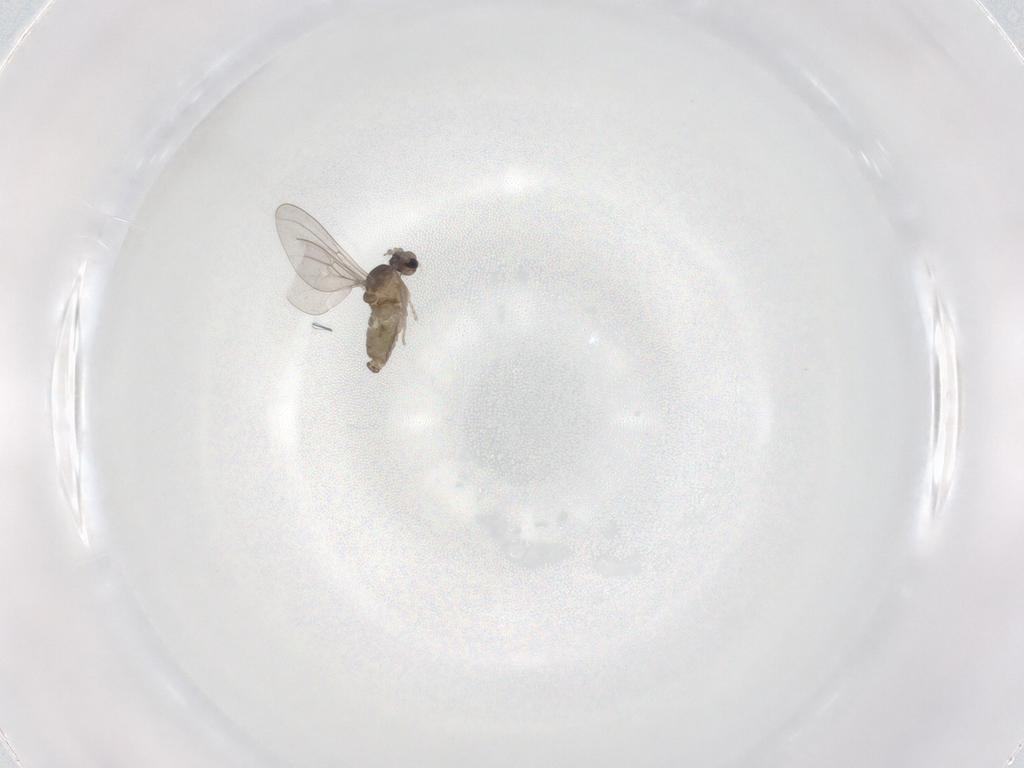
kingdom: Animalia
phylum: Arthropoda
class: Insecta
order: Diptera
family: Cecidomyiidae
